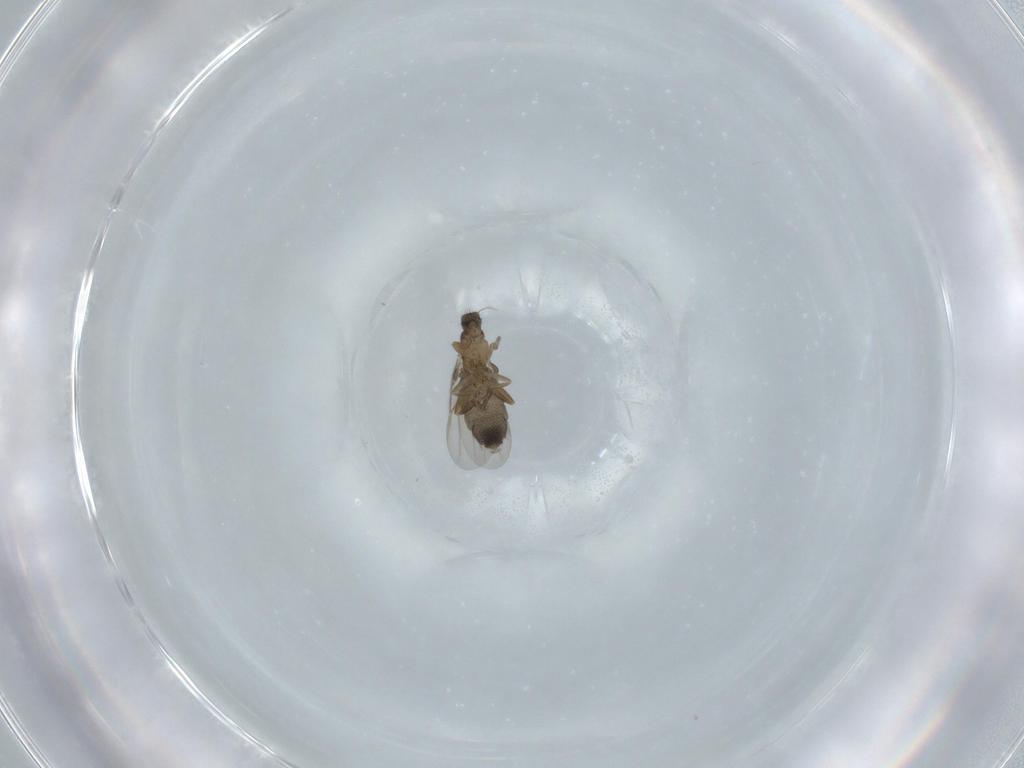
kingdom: Animalia
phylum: Arthropoda
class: Insecta
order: Diptera
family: Phoridae
